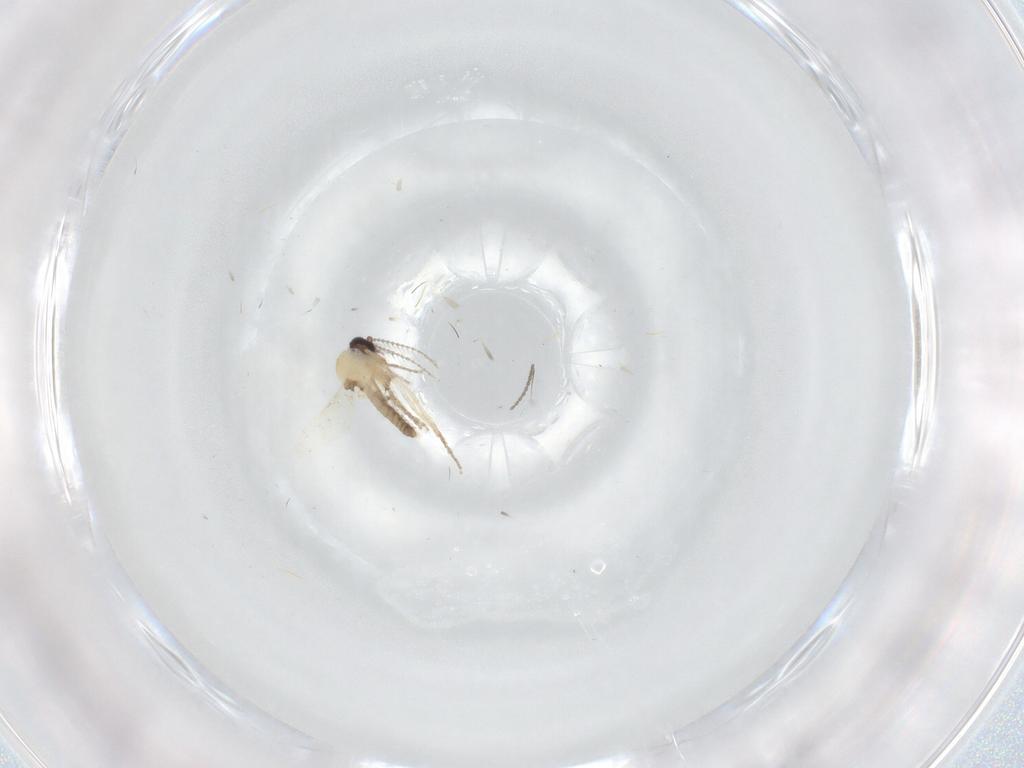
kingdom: Animalia
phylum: Arthropoda
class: Insecta
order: Diptera
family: Ceratopogonidae
